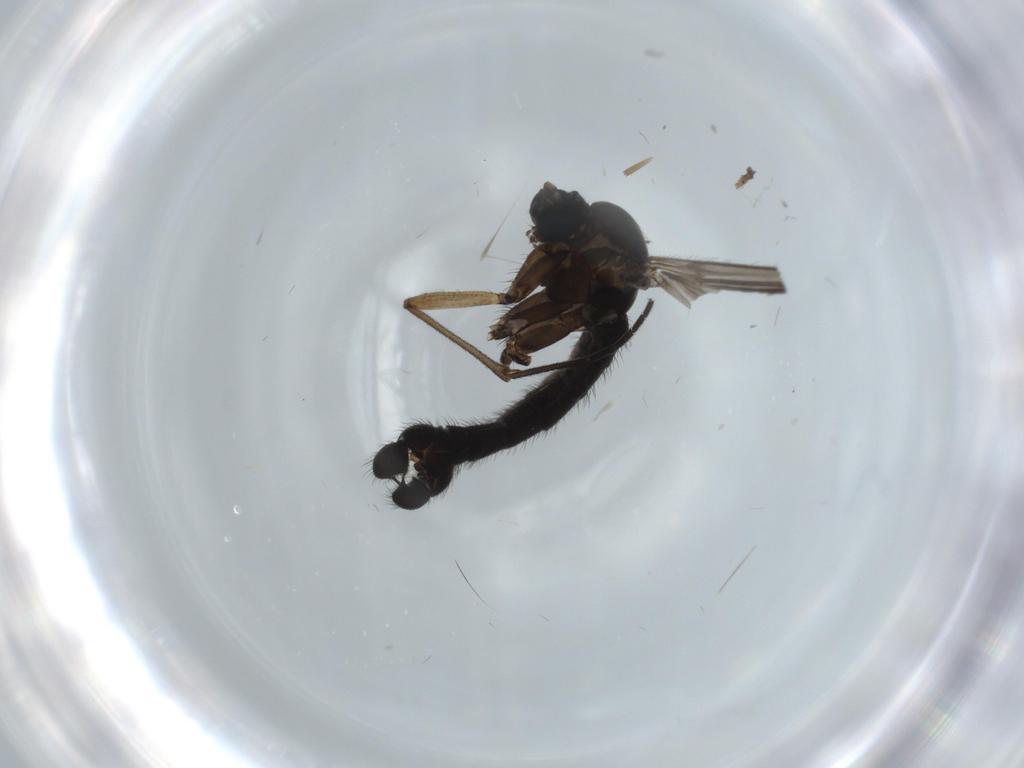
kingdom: Animalia
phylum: Arthropoda
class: Insecta
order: Diptera
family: Sciaridae
